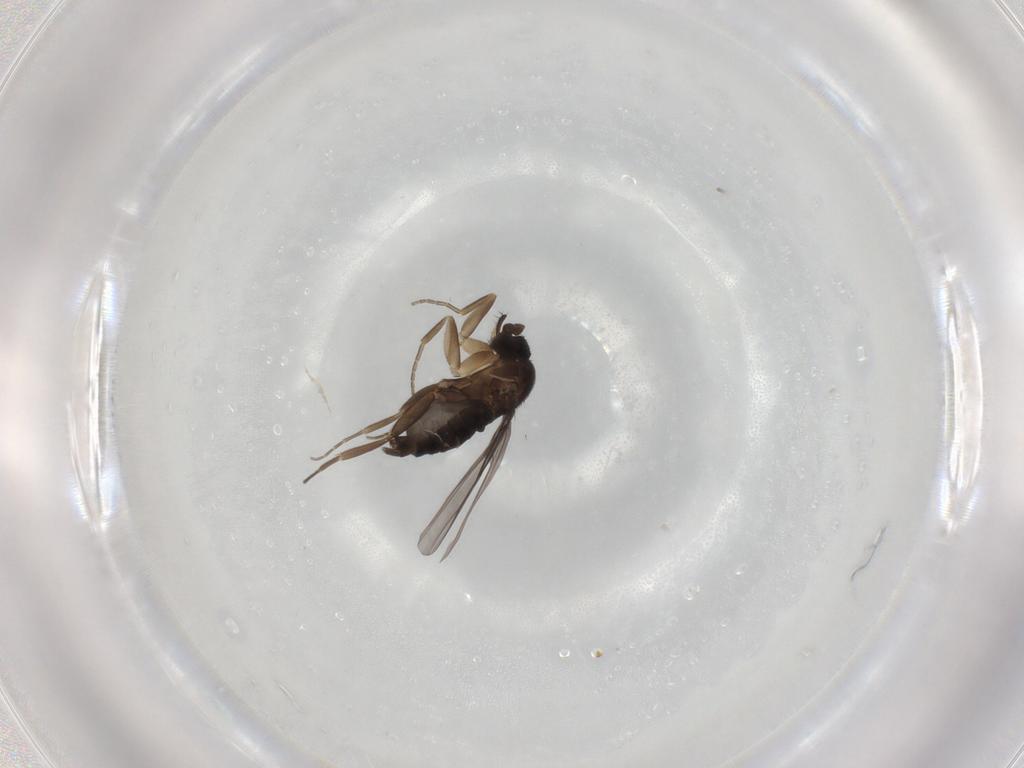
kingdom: Animalia
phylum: Arthropoda
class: Insecta
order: Diptera
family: Phoridae
